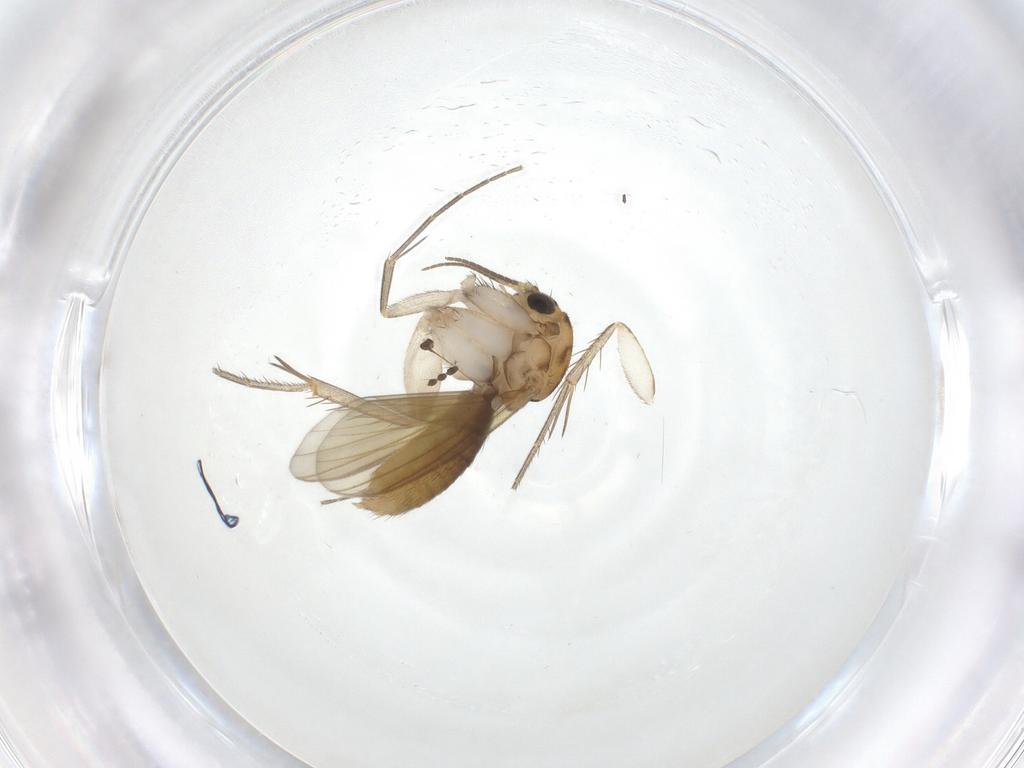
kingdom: Animalia
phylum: Arthropoda
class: Insecta
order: Diptera
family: Mycetophilidae
